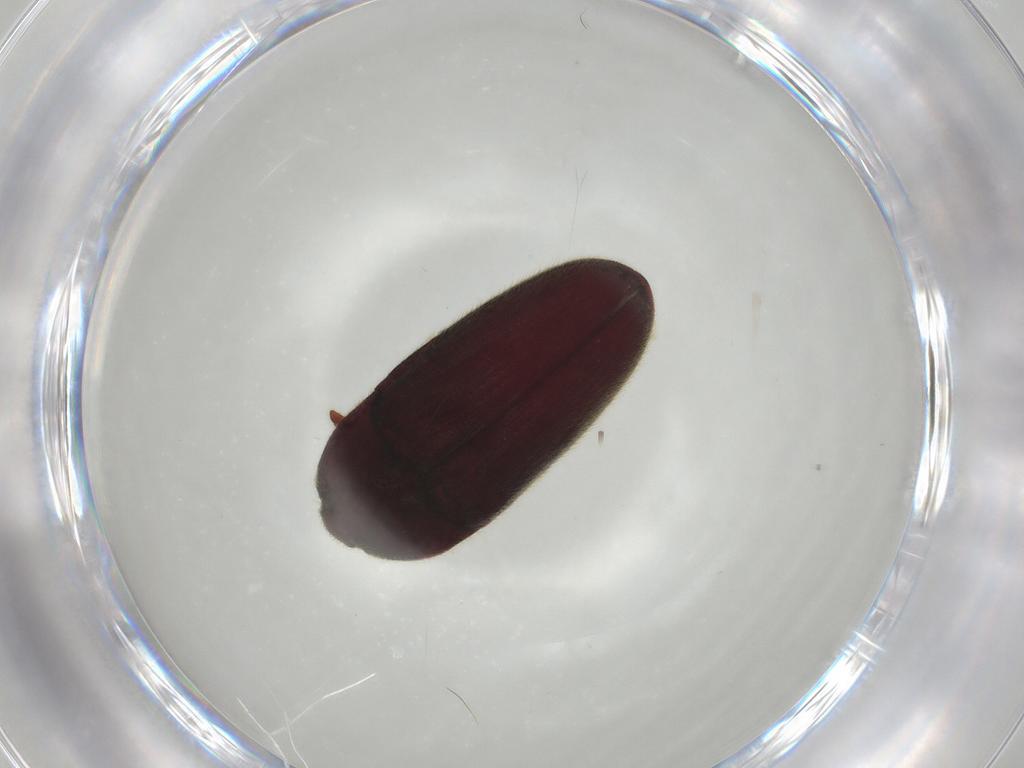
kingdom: Animalia
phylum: Arthropoda
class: Insecta
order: Coleoptera
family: Throscidae
